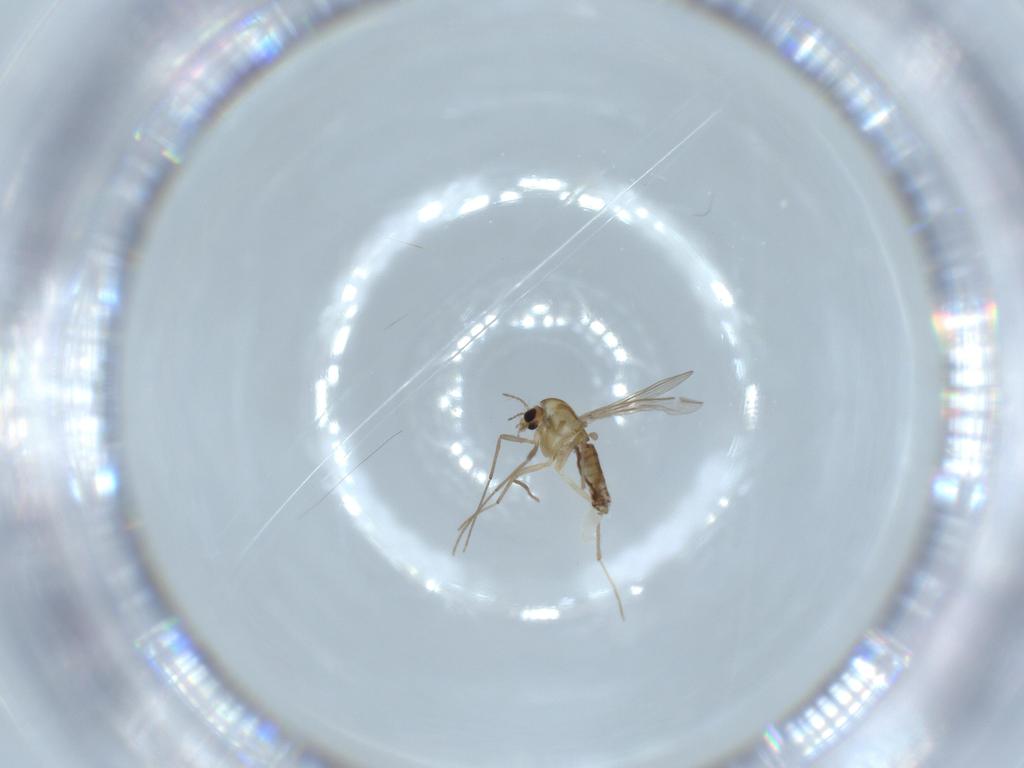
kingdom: Animalia
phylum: Arthropoda
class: Insecta
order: Diptera
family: Chironomidae
